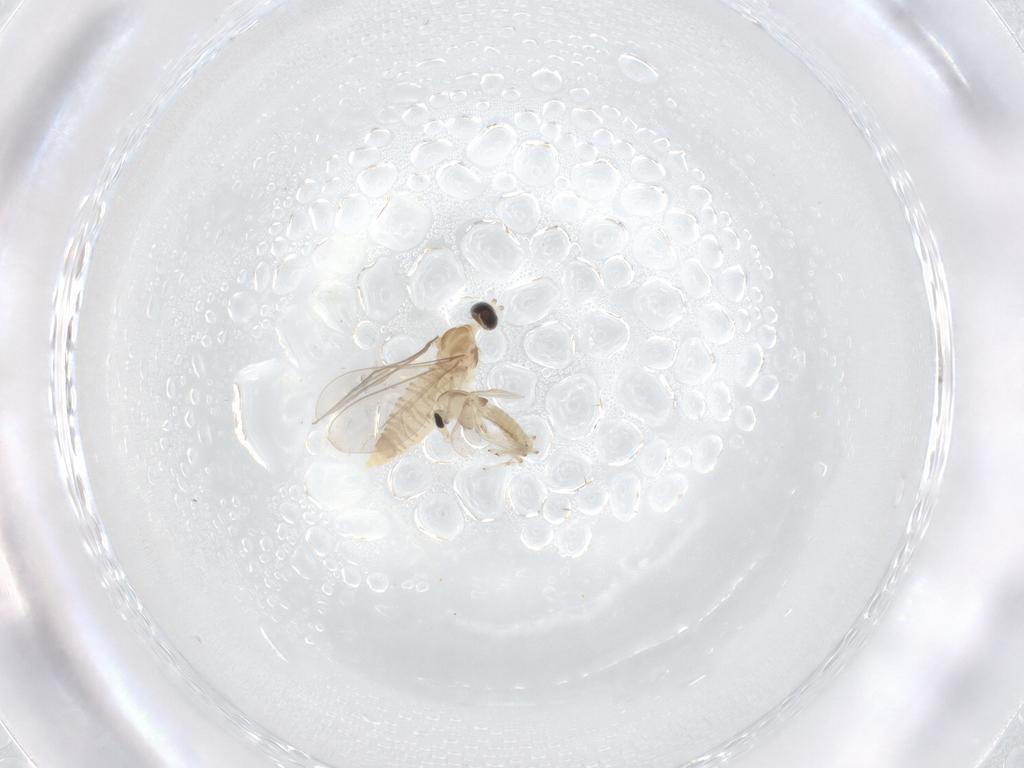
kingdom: Animalia
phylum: Arthropoda
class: Insecta
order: Diptera
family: Cecidomyiidae
